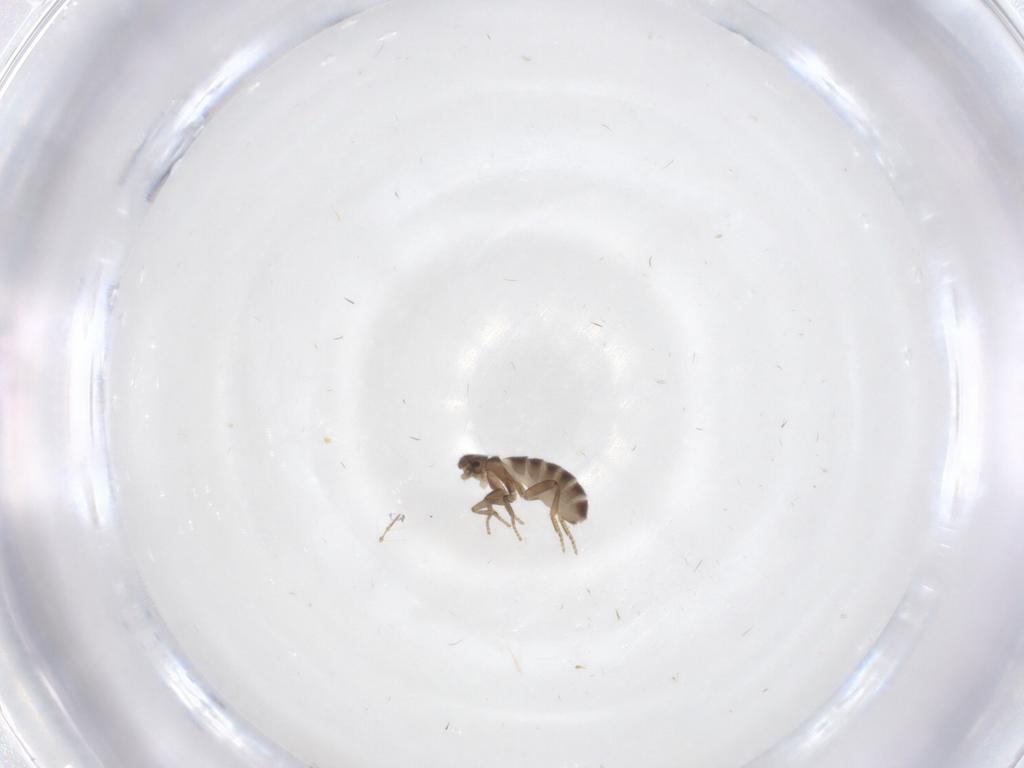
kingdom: Animalia
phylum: Arthropoda
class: Insecta
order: Diptera
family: Chironomidae
